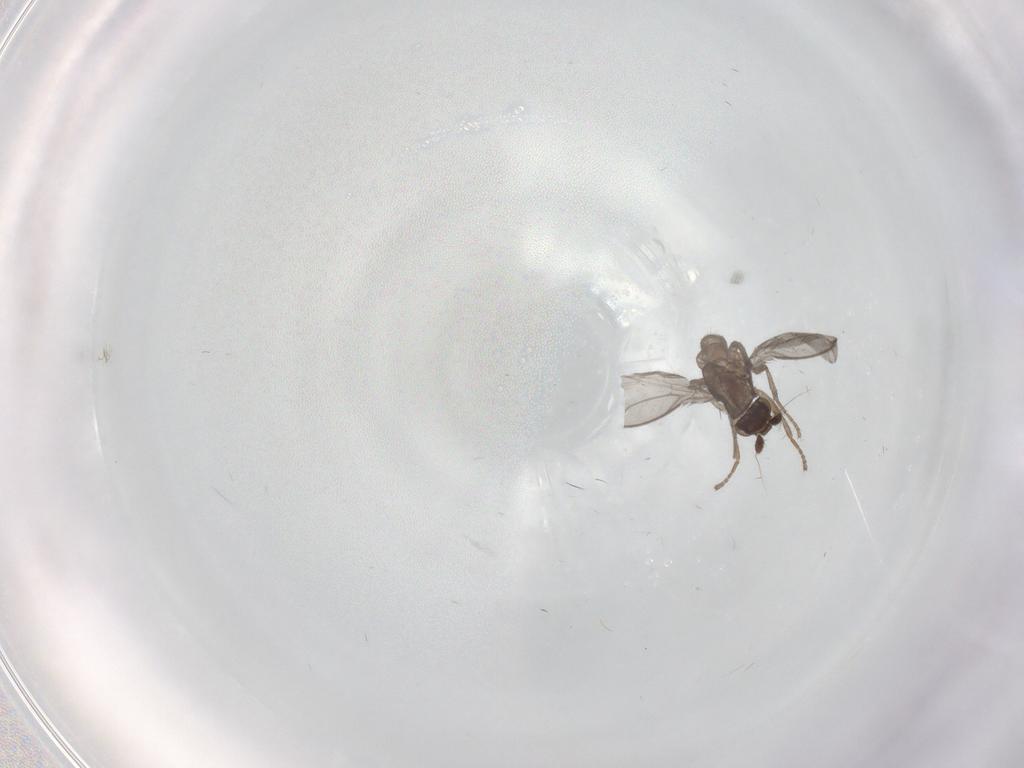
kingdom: Animalia
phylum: Arthropoda
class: Insecta
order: Diptera
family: Sphaeroceridae
